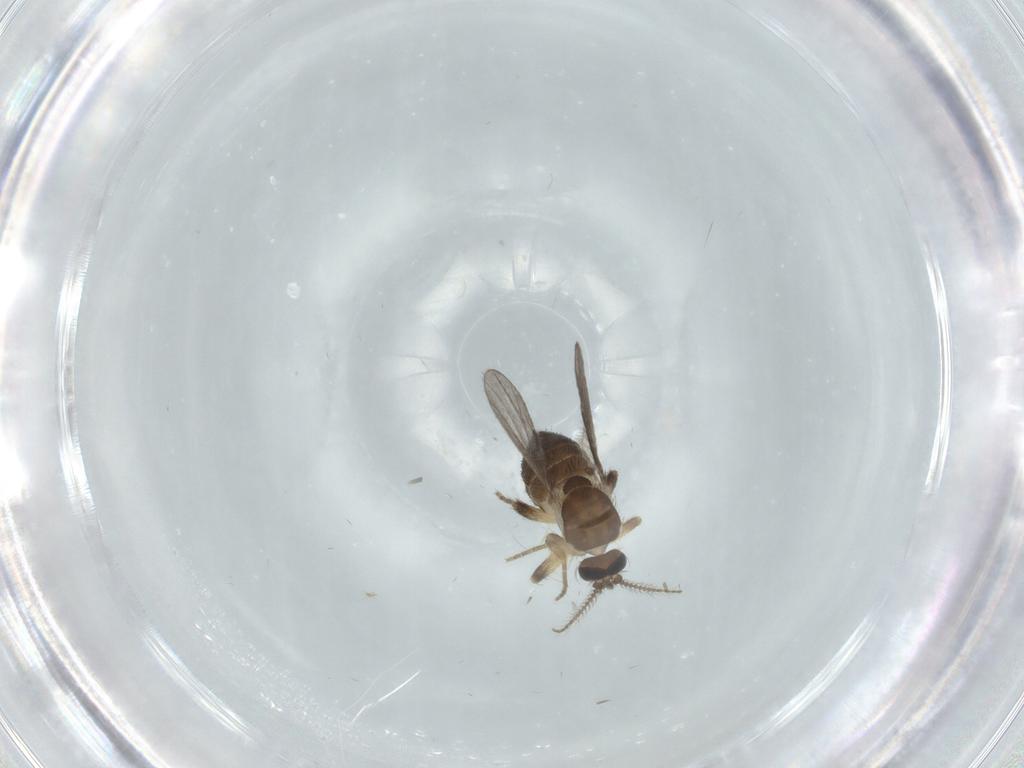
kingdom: Animalia
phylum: Arthropoda
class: Insecta
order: Diptera
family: Ceratopogonidae
